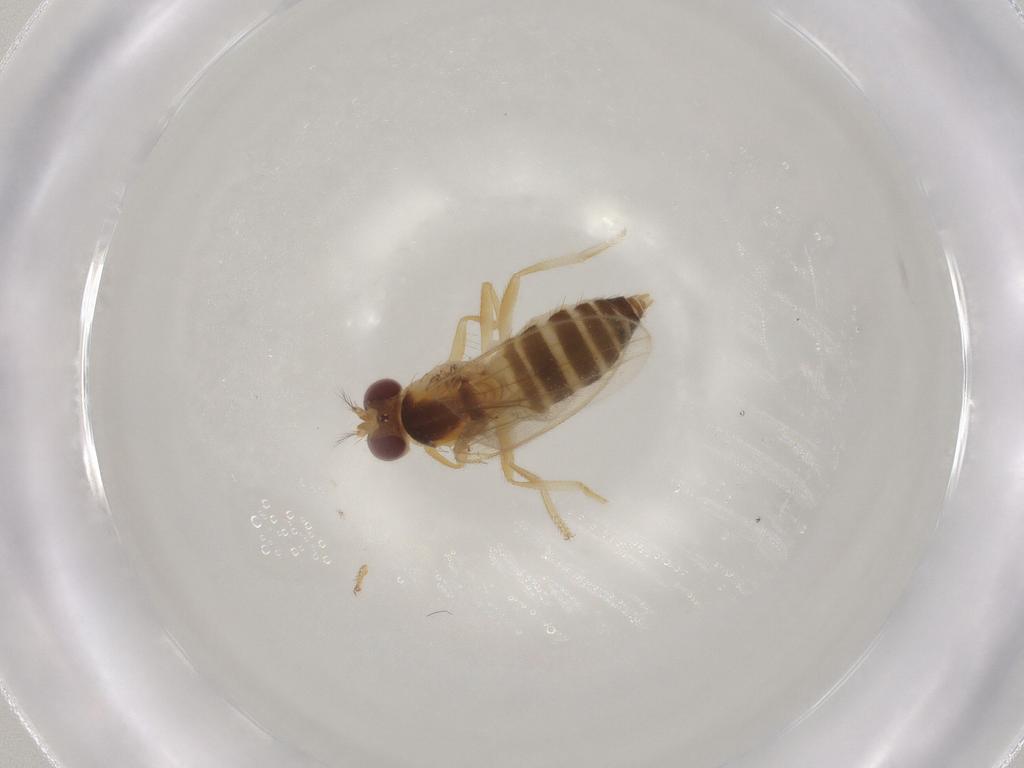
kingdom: Animalia
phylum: Arthropoda
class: Insecta
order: Diptera
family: Periscelididae
